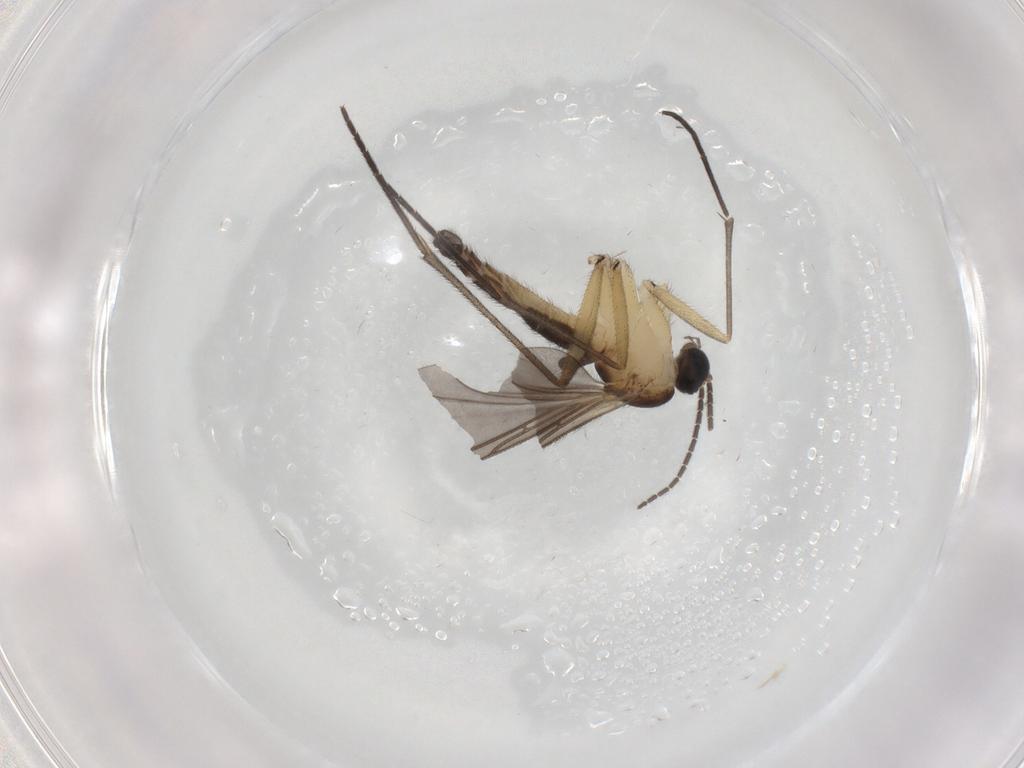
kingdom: Animalia
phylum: Arthropoda
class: Insecta
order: Diptera
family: Sciaridae
